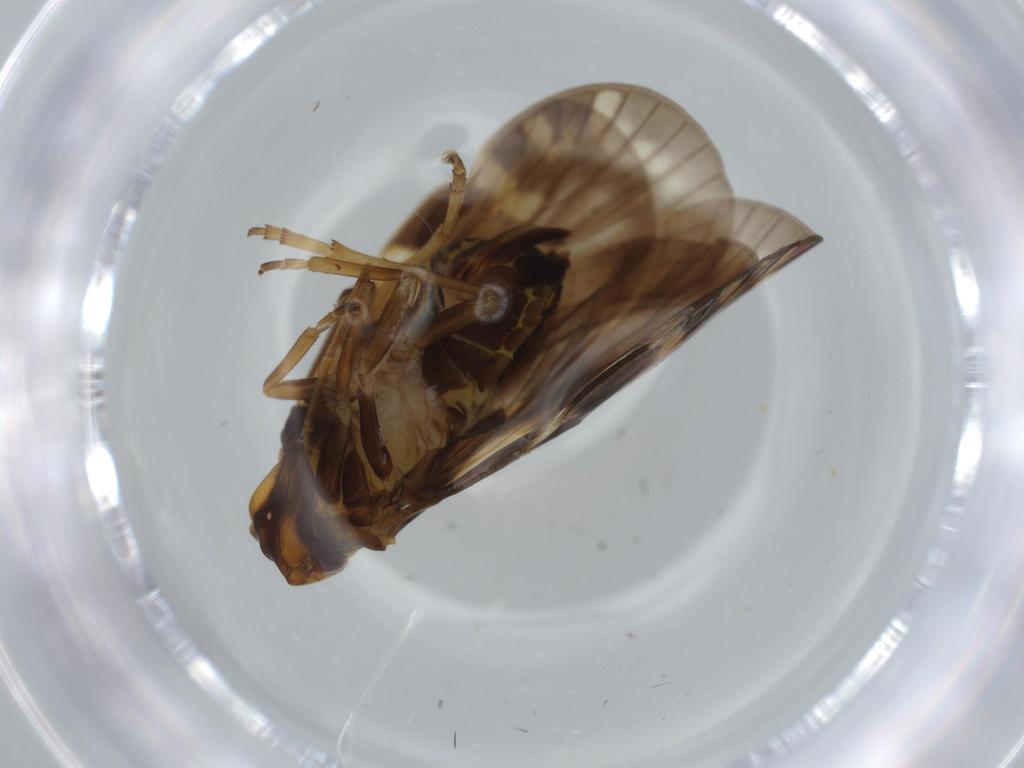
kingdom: Animalia
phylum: Arthropoda
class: Insecta
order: Hemiptera
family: Cixiidae
